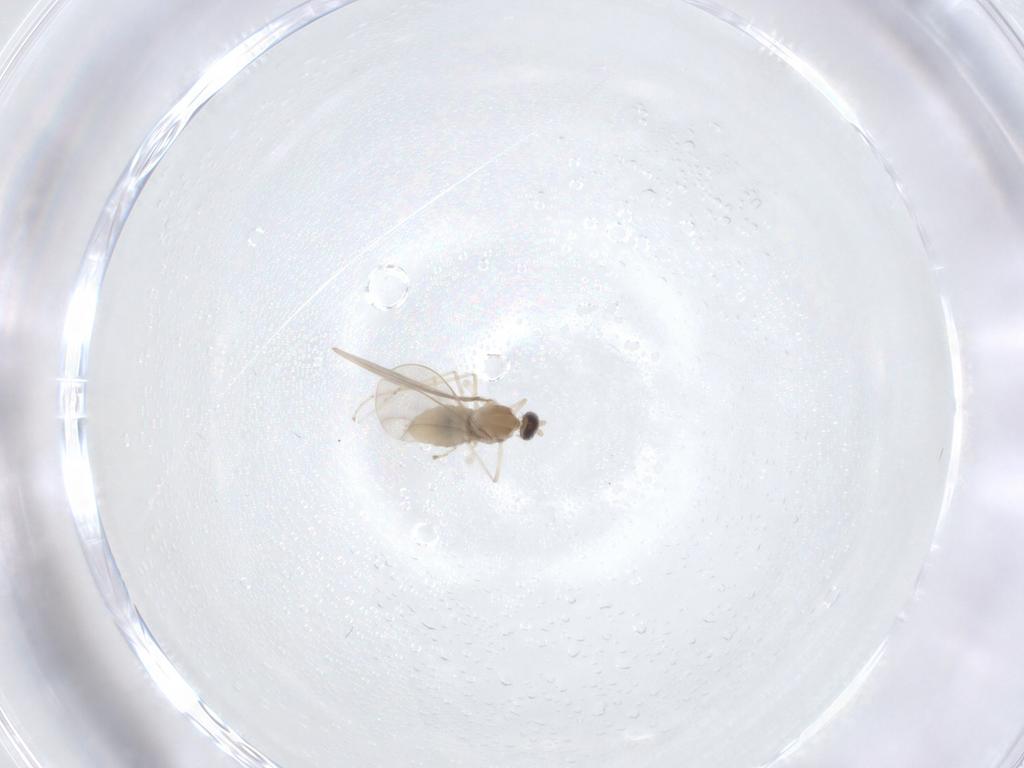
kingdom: Animalia
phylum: Arthropoda
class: Insecta
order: Diptera
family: Cecidomyiidae
